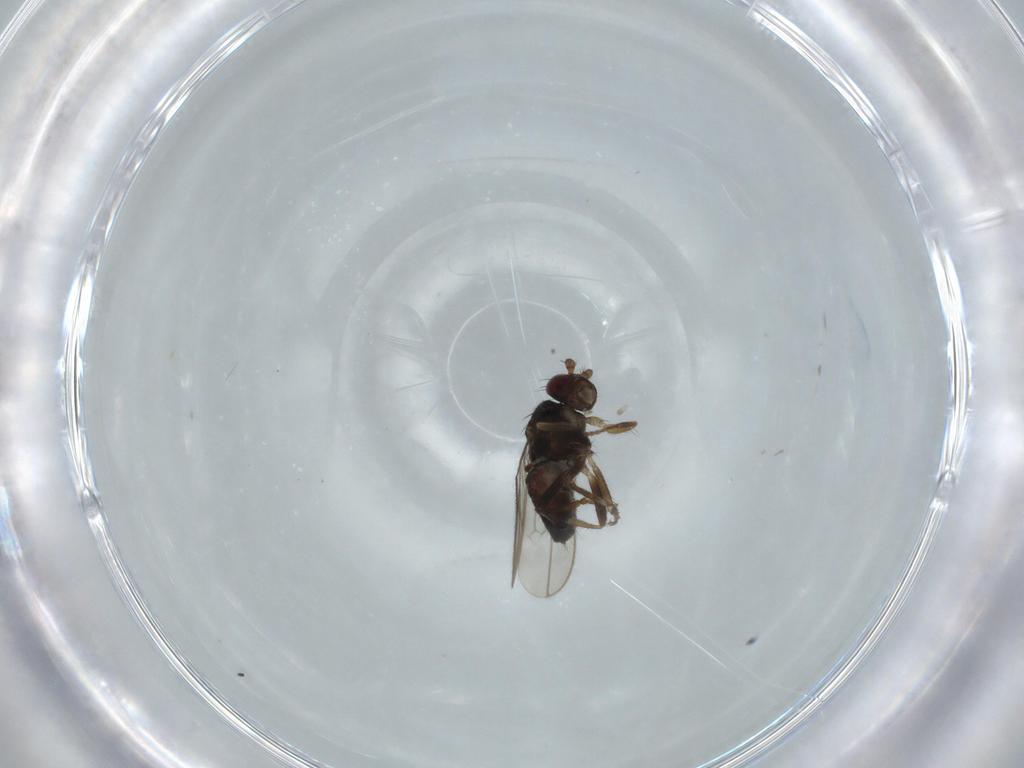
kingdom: Animalia
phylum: Arthropoda
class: Insecta
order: Diptera
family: Sphaeroceridae
